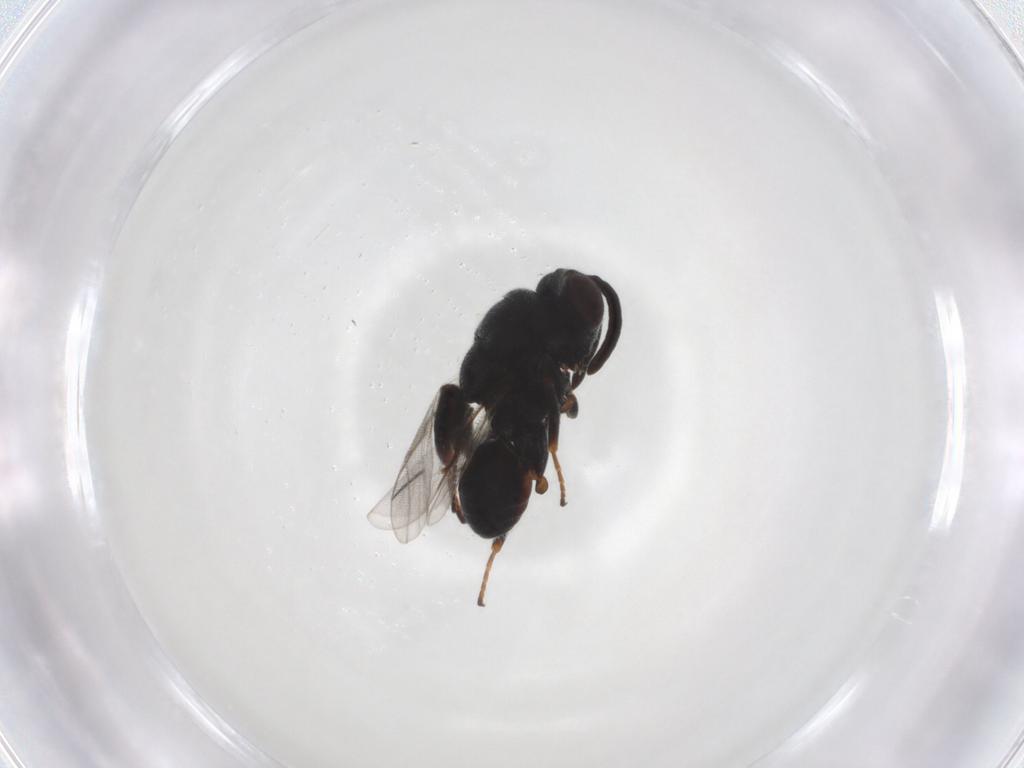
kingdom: Animalia
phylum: Arthropoda
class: Insecta
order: Hymenoptera
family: Chalcididae
